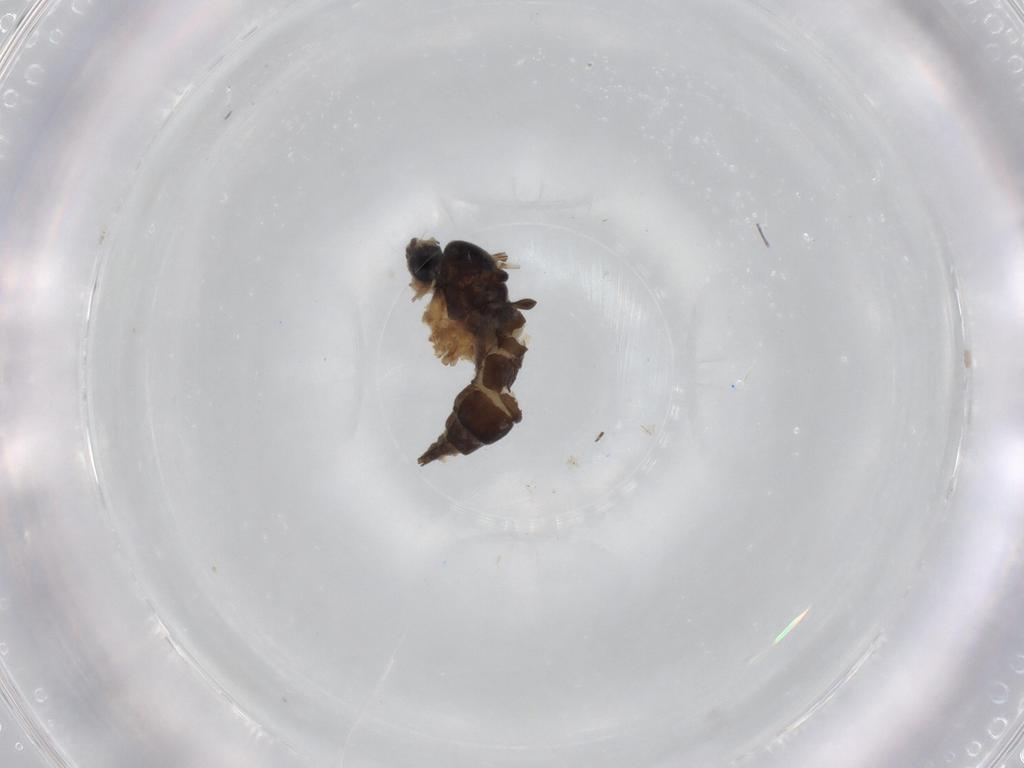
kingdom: Animalia
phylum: Arthropoda
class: Insecta
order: Diptera
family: Sciaridae
